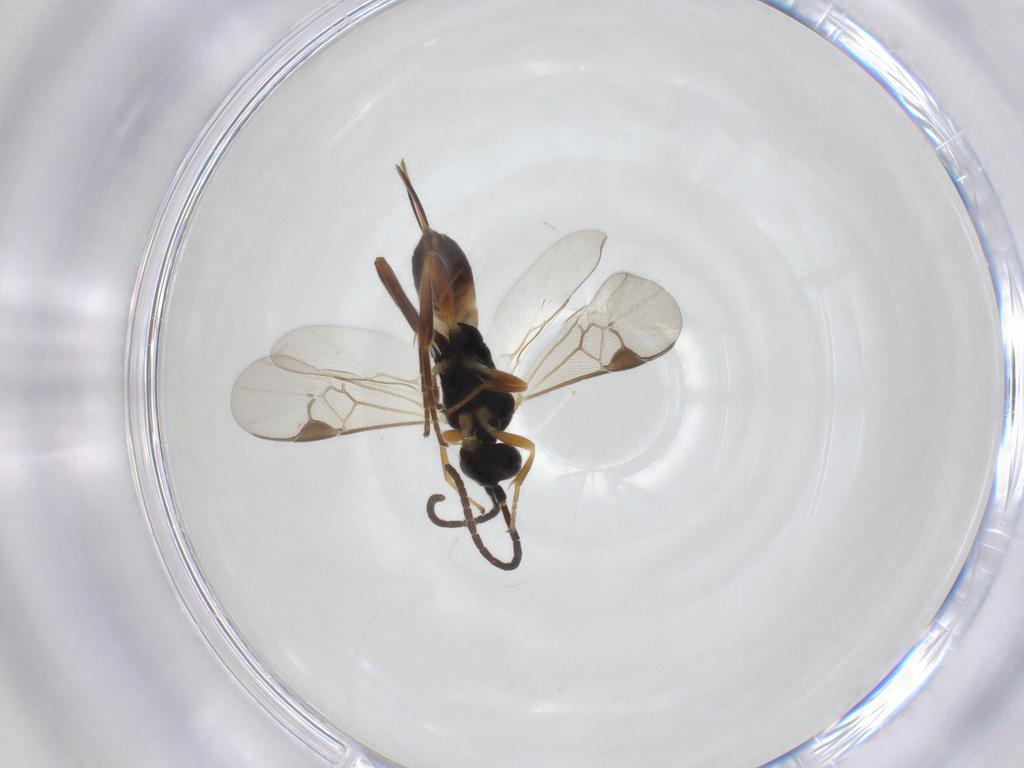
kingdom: Animalia
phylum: Arthropoda
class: Insecta
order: Hymenoptera
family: Braconidae
